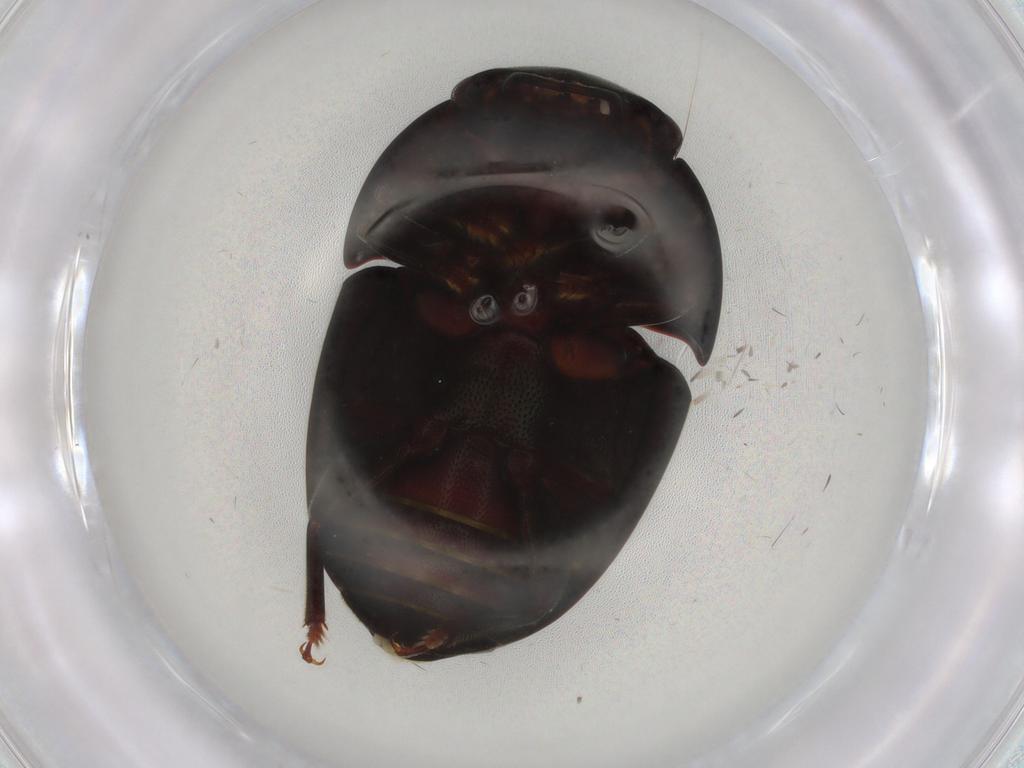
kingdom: Animalia
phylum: Arthropoda
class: Insecta
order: Coleoptera
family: Nitidulidae
